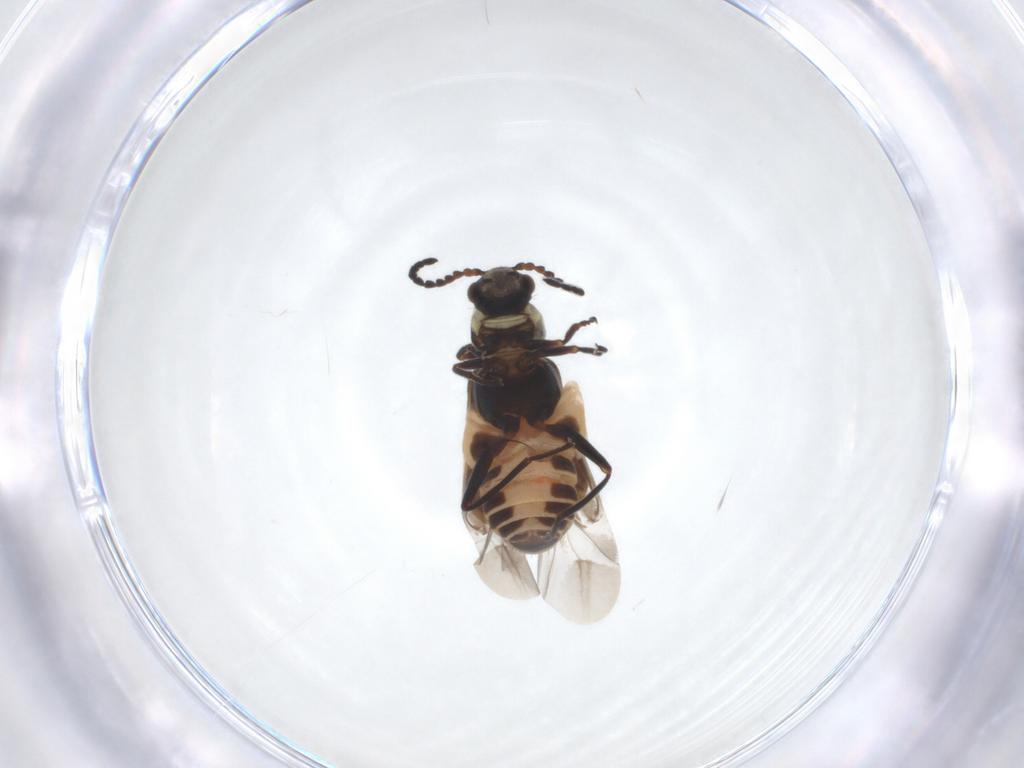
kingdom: Animalia
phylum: Arthropoda
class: Insecta
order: Coleoptera
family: Melyridae
